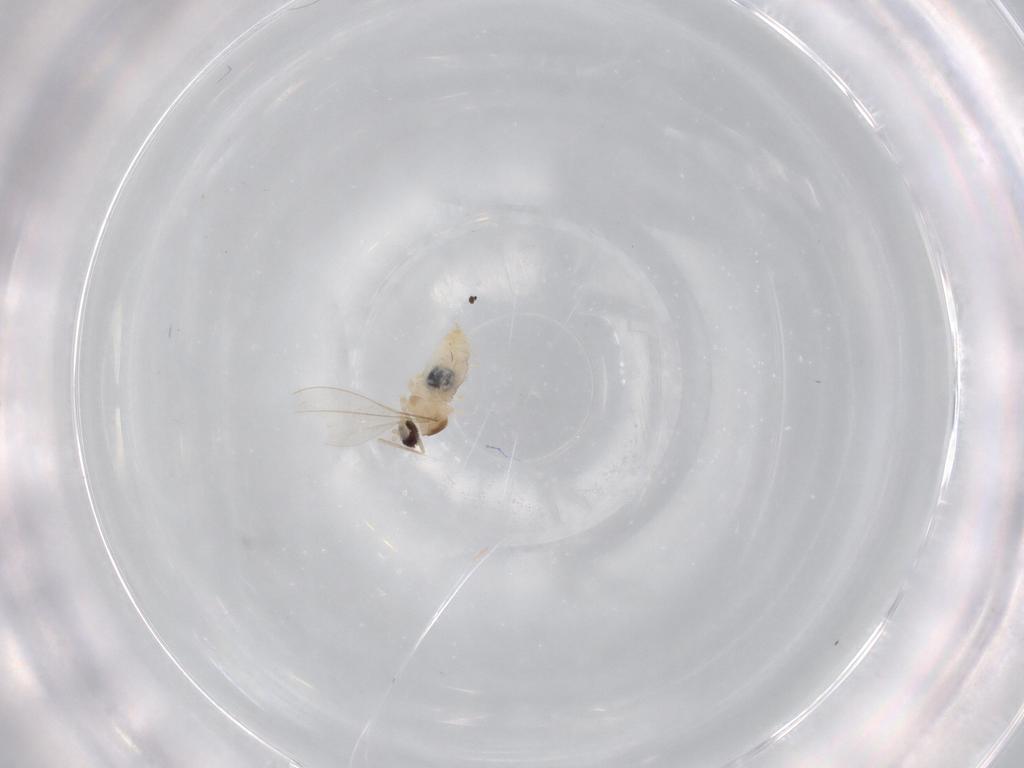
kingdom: Animalia
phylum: Arthropoda
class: Insecta
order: Diptera
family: Cecidomyiidae
